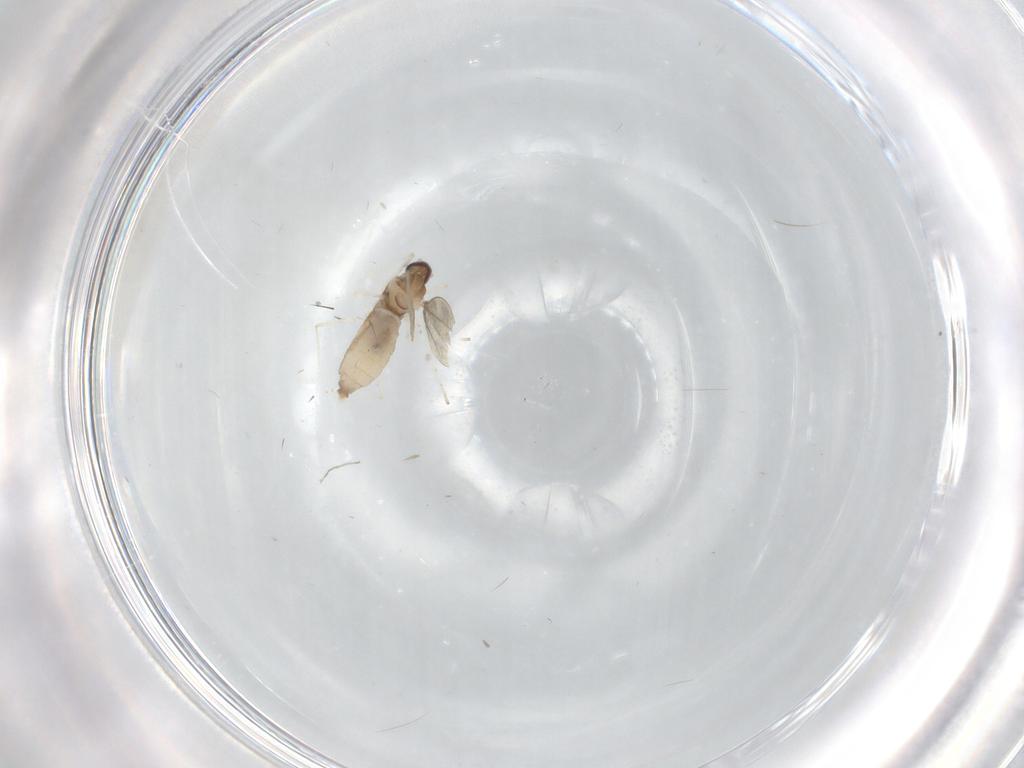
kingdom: Animalia
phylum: Arthropoda
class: Insecta
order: Diptera
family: Cecidomyiidae
